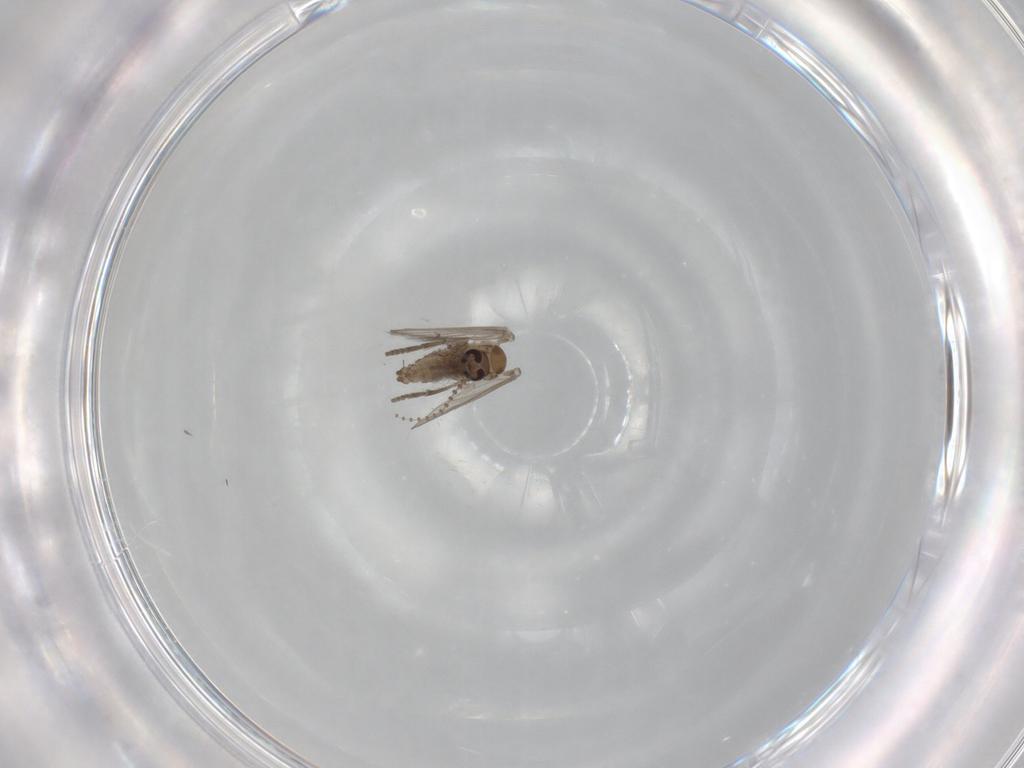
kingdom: Animalia
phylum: Arthropoda
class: Insecta
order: Diptera
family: Psychodidae
